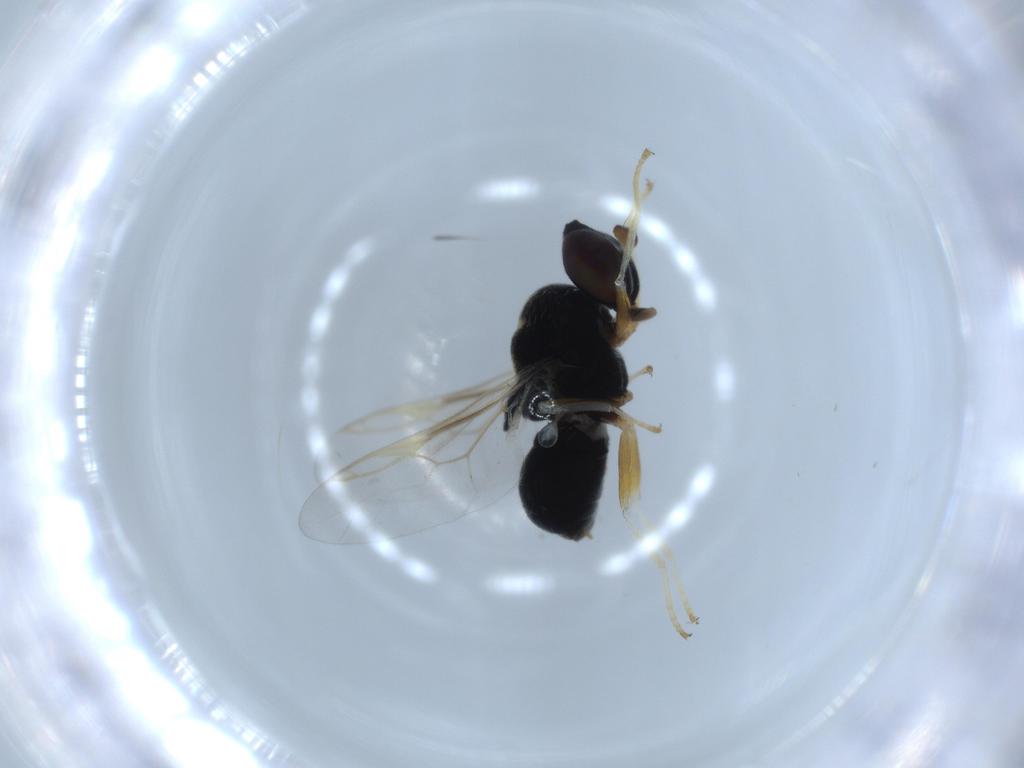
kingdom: Animalia
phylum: Arthropoda
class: Insecta
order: Diptera
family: Stratiomyidae
